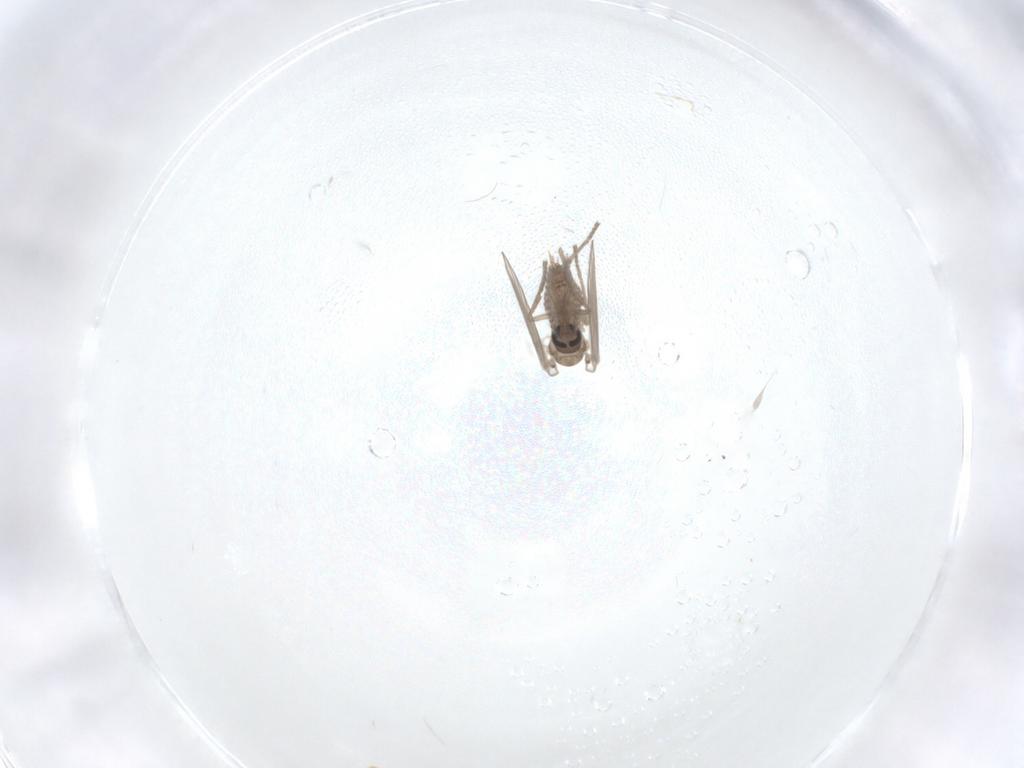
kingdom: Animalia
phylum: Arthropoda
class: Insecta
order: Diptera
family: Psychodidae
